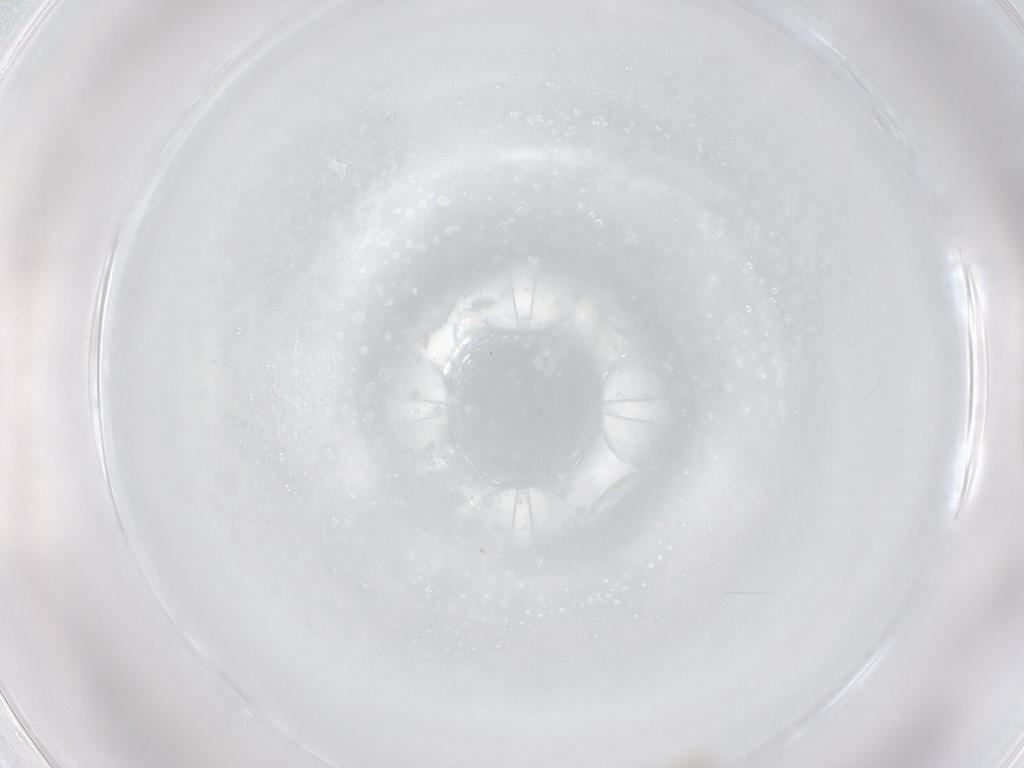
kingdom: Animalia
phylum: Arthropoda
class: Insecta
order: Hymenoptera
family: Mymaridae
